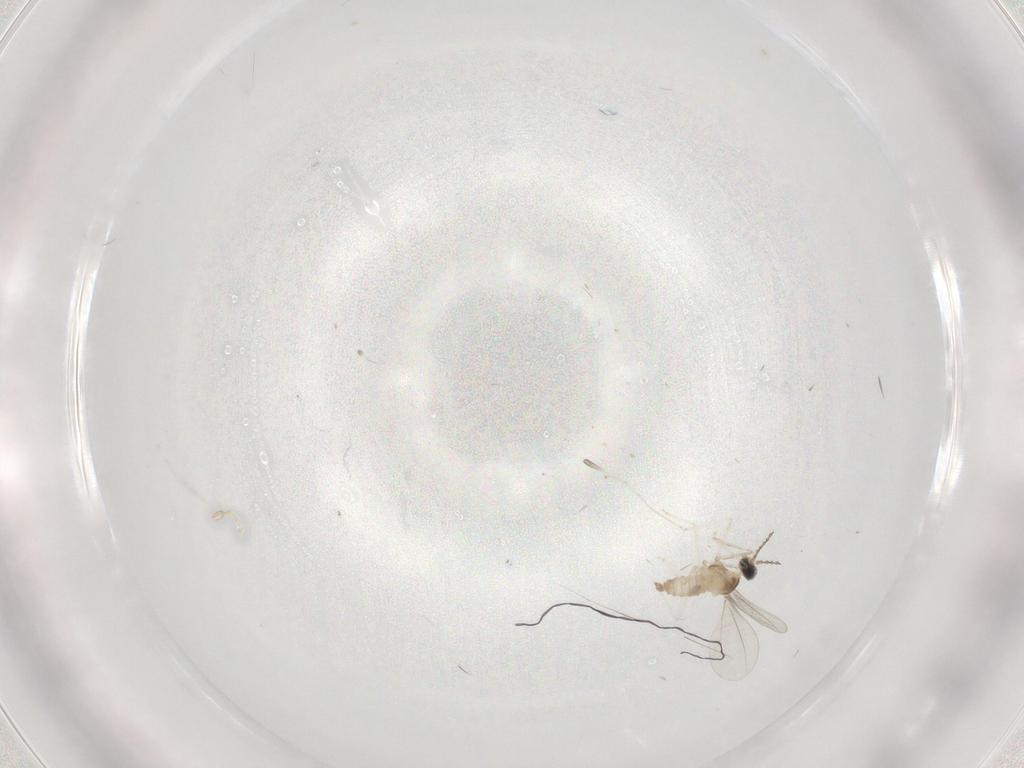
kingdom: Animalia
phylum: Arthropoda
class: Insecta
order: Diptera
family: Cecidomyiidae
